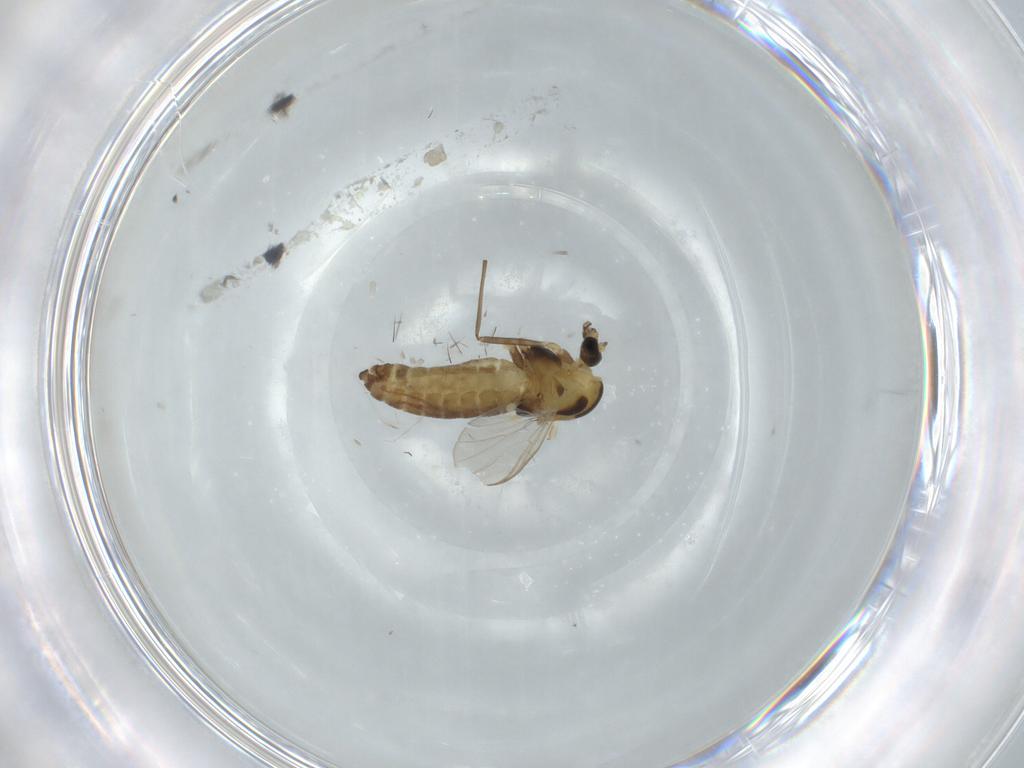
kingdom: Animalia
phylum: Arthropoda
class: Insecta
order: Diptera
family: Chironomidae
